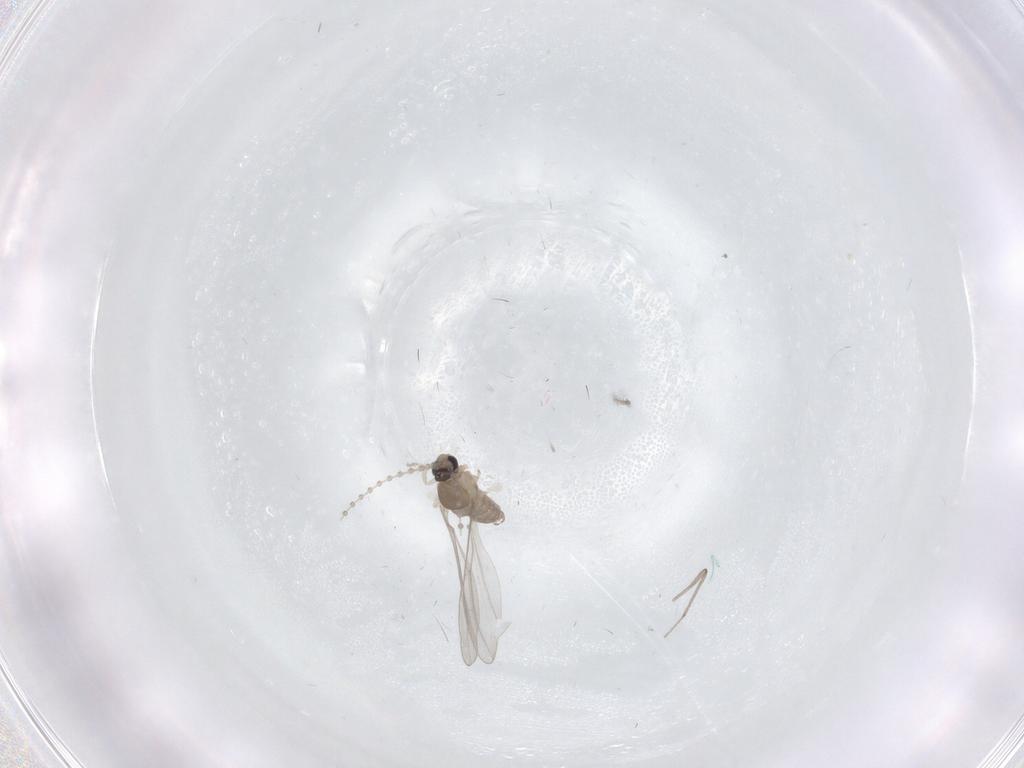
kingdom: Animalia
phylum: Arthropoda
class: Insecta
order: Diptera
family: Cecidomyiidae
